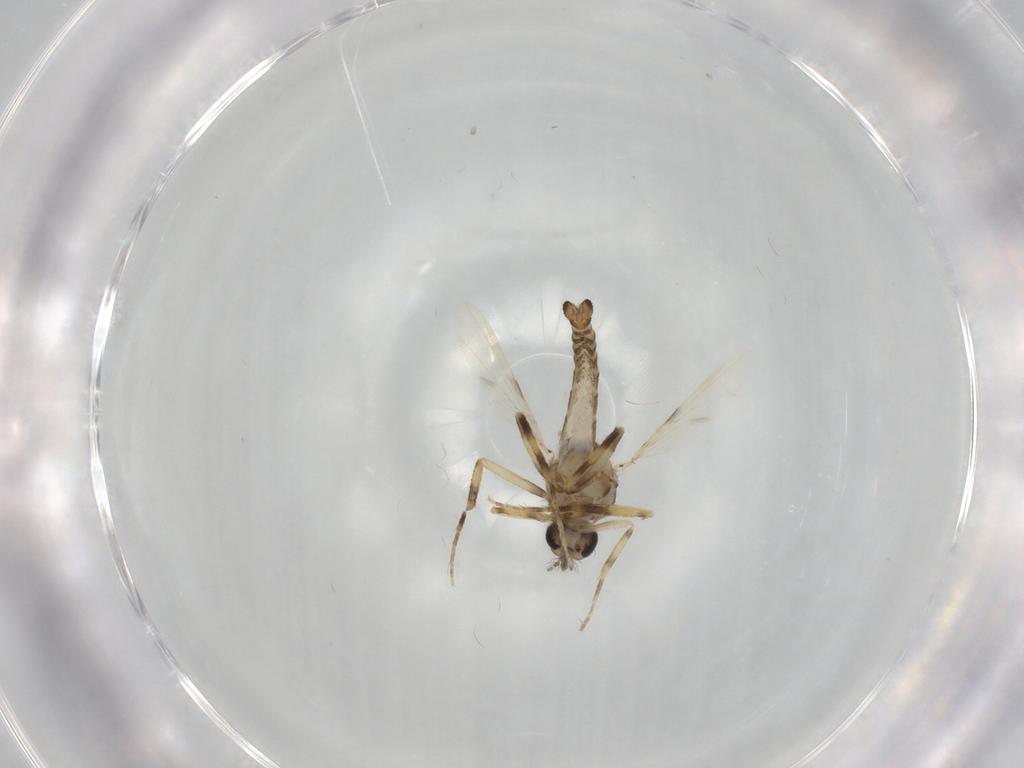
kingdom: Animalia
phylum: Arthropoda
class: Insecta
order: Diptera
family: Ceratopogonidae
